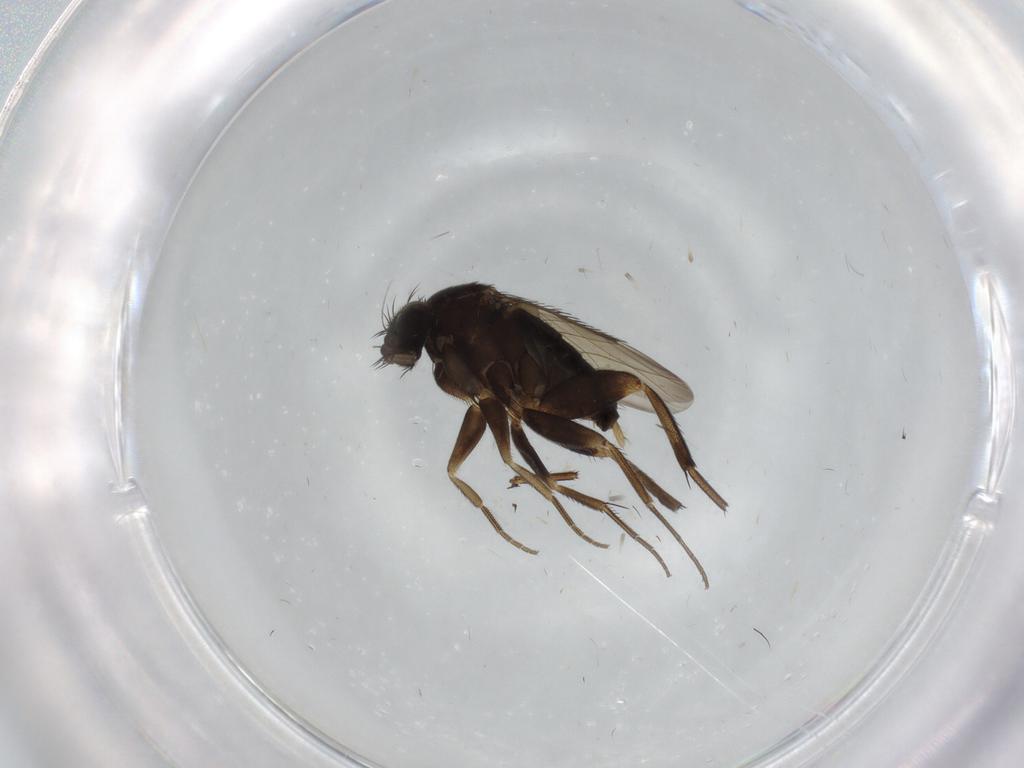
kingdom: Animalia
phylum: Arthropoda
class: Insecta
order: Diptera
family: Phoridae
